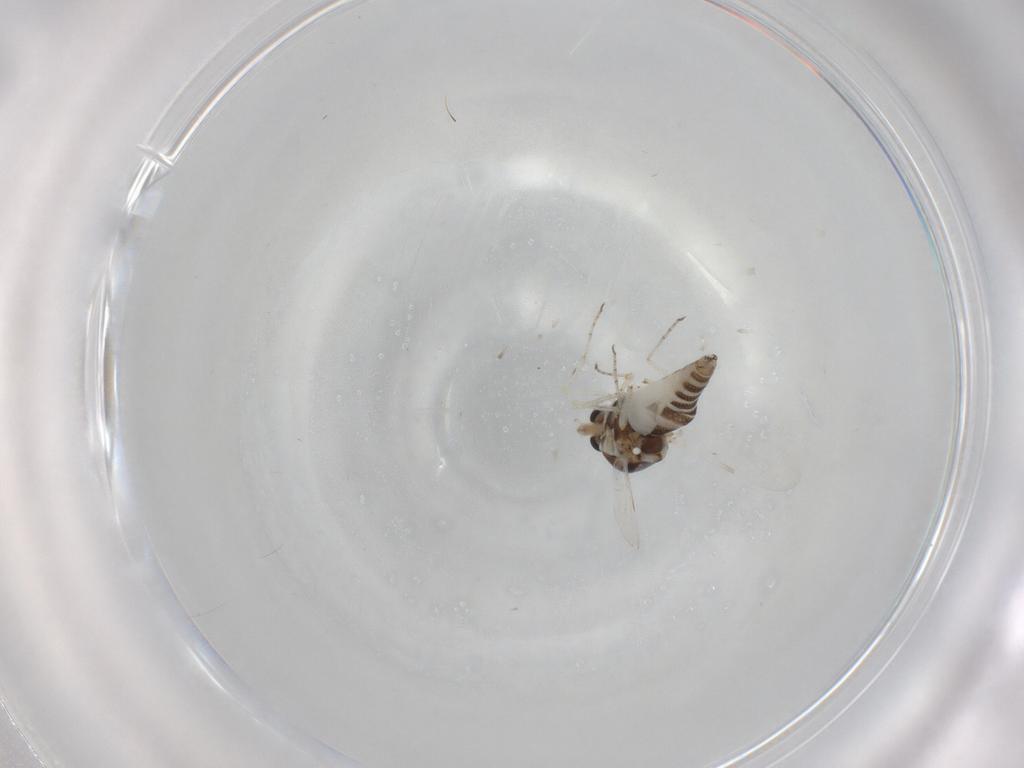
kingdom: Animalia
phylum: Arthropoda
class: Insecta
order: Diptera
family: Ceratopogonidae
